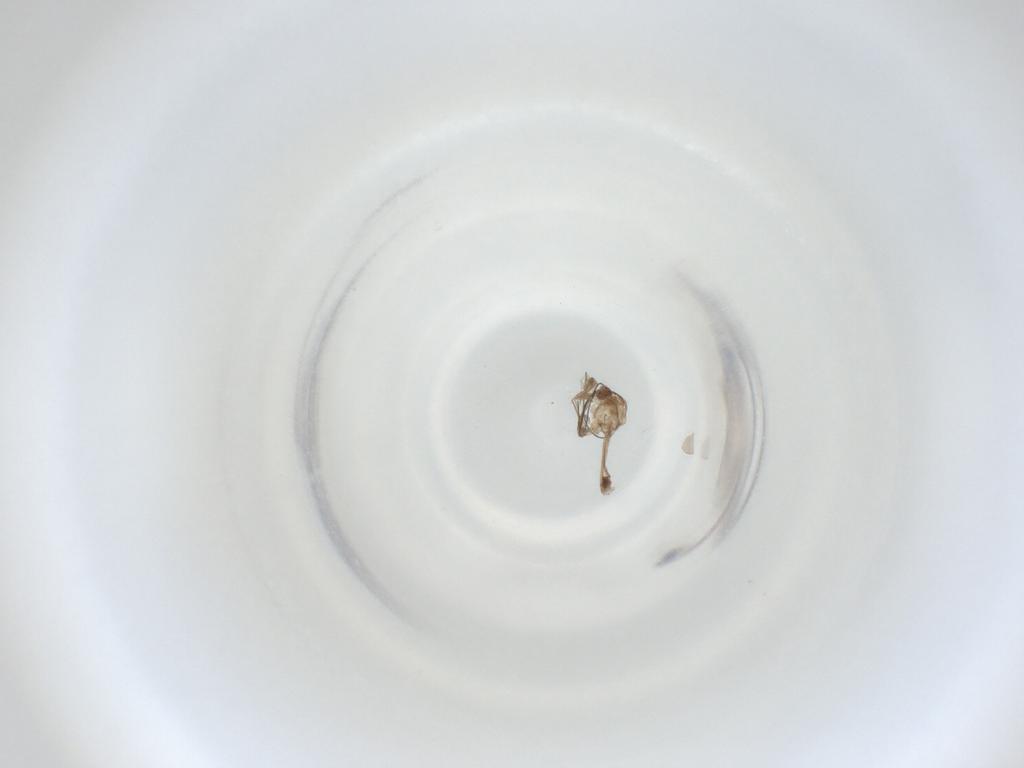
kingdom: Animalia
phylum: Arthropoda
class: Insecta
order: Diptera
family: Cecidomyiidae
